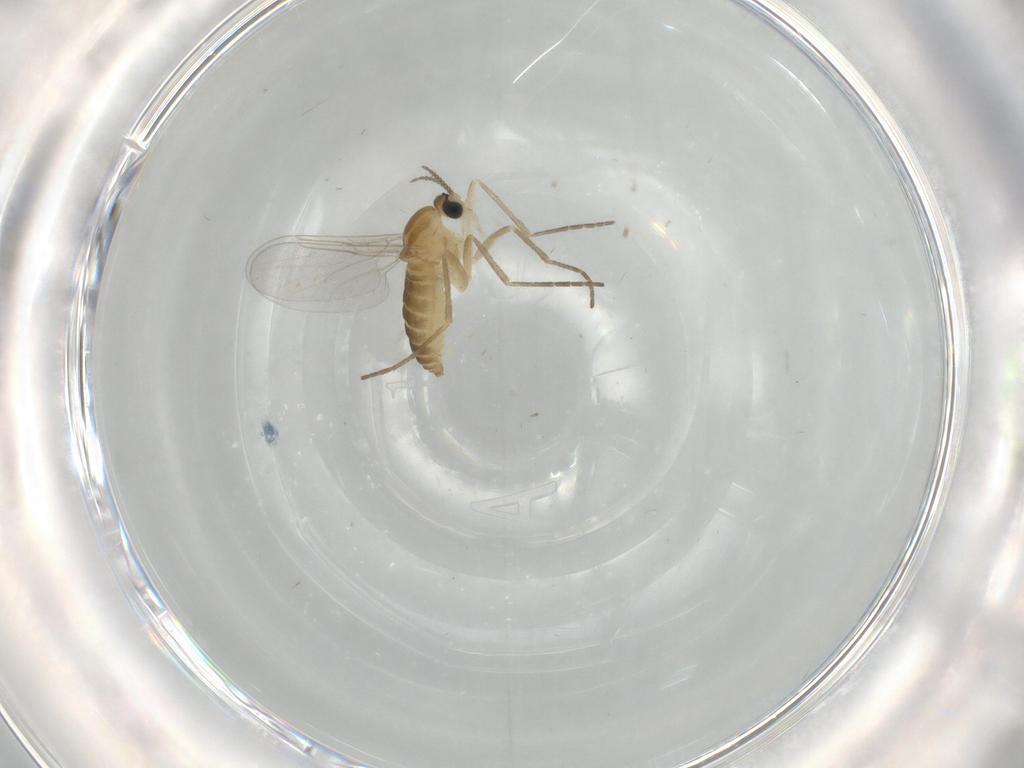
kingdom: Animalia
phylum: Arthropoda
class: Insecta
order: Diptera
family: Cecidomyiidae
